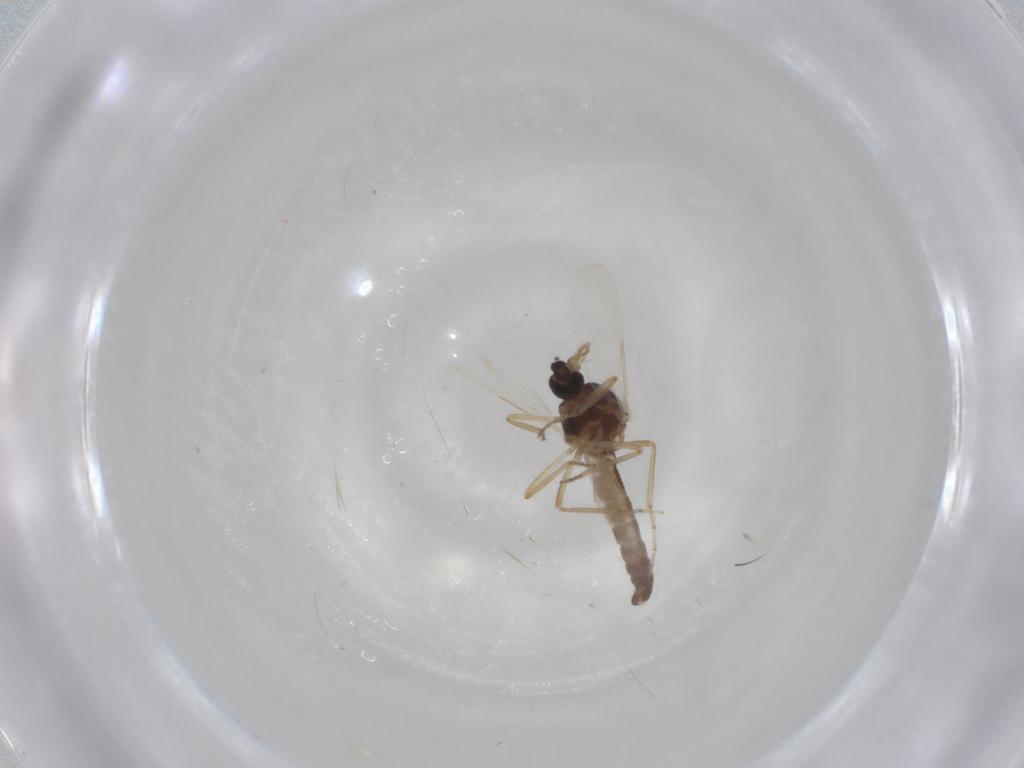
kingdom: Animalia
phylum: Arthropoda
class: Insecta
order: Diptera
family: Ceratopogonidae
